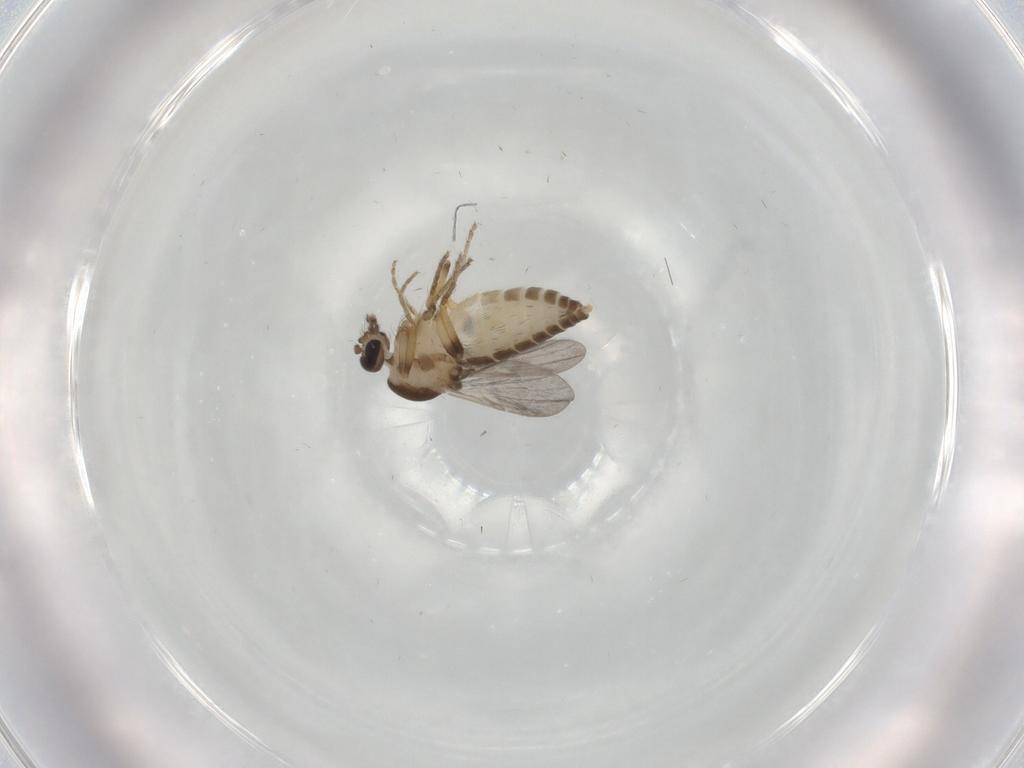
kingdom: Animalia
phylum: Arthropoda
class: Insecta
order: Diptera
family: Ceratopogonidae
